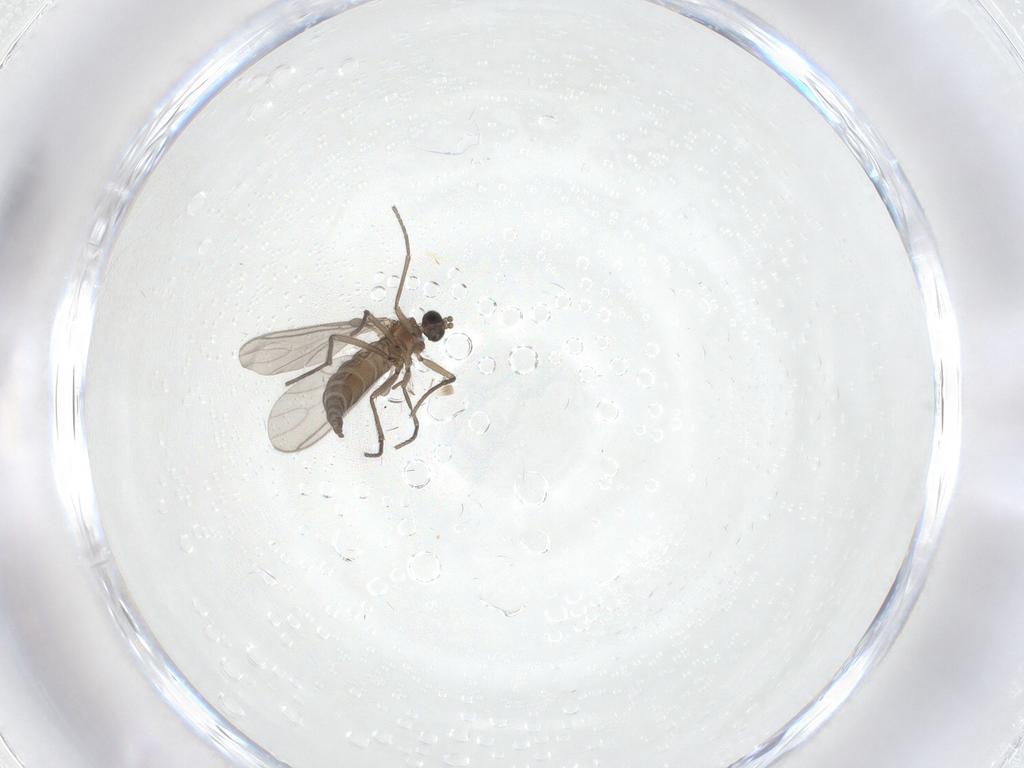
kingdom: Animalia
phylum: Arthropoda
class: Insecta
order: Diptera
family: Sciaridae
